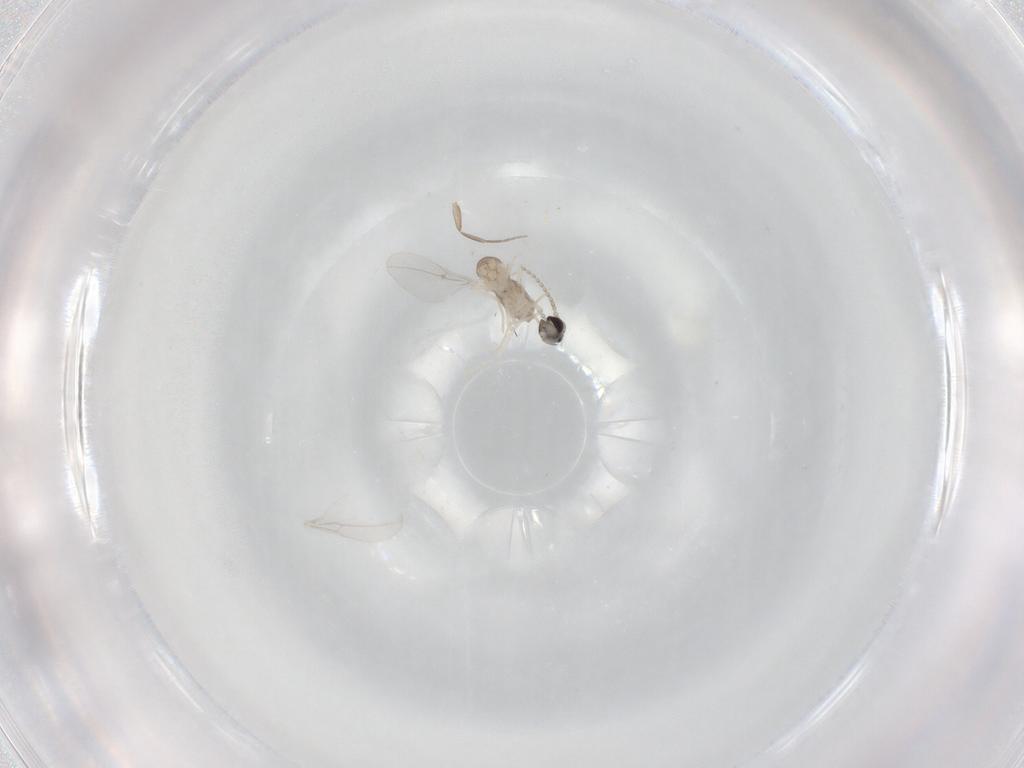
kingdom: Animalia
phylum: Arthropoda
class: Insecta
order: Diptera
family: Cecidomyiidae
